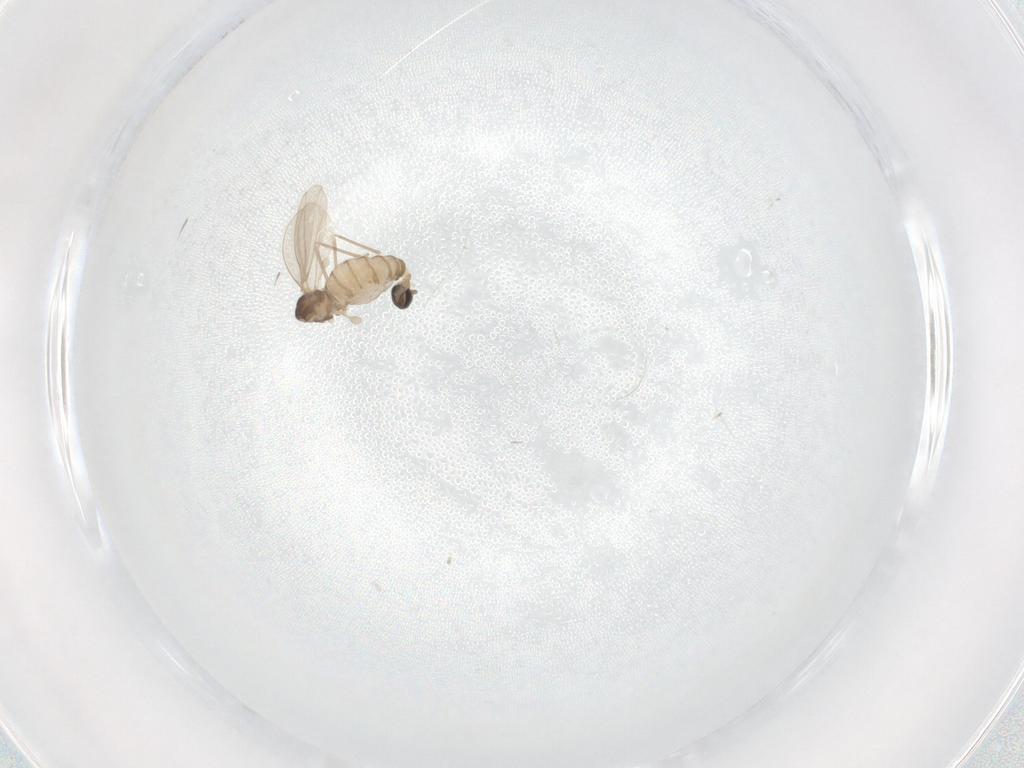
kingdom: Animalia
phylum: Arthropoda
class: Insecta
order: Diptera
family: Cecidomyiidae
